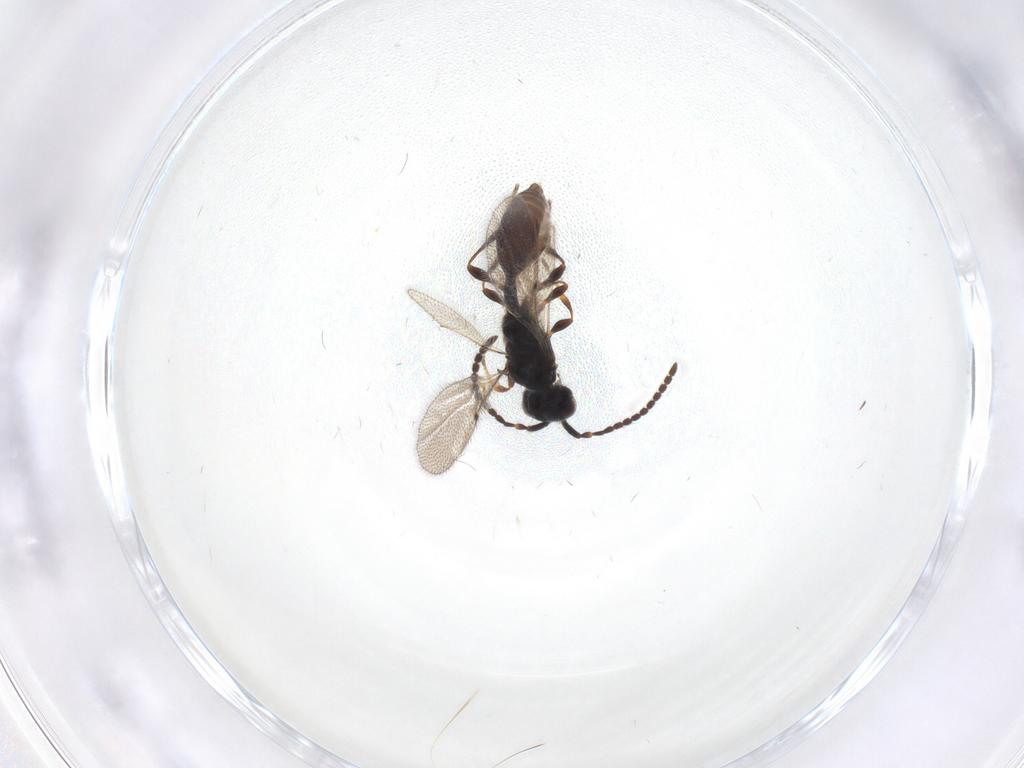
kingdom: Animalia
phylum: Arthropoda
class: Insecta
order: Hymenoptera
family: Diapriidae
